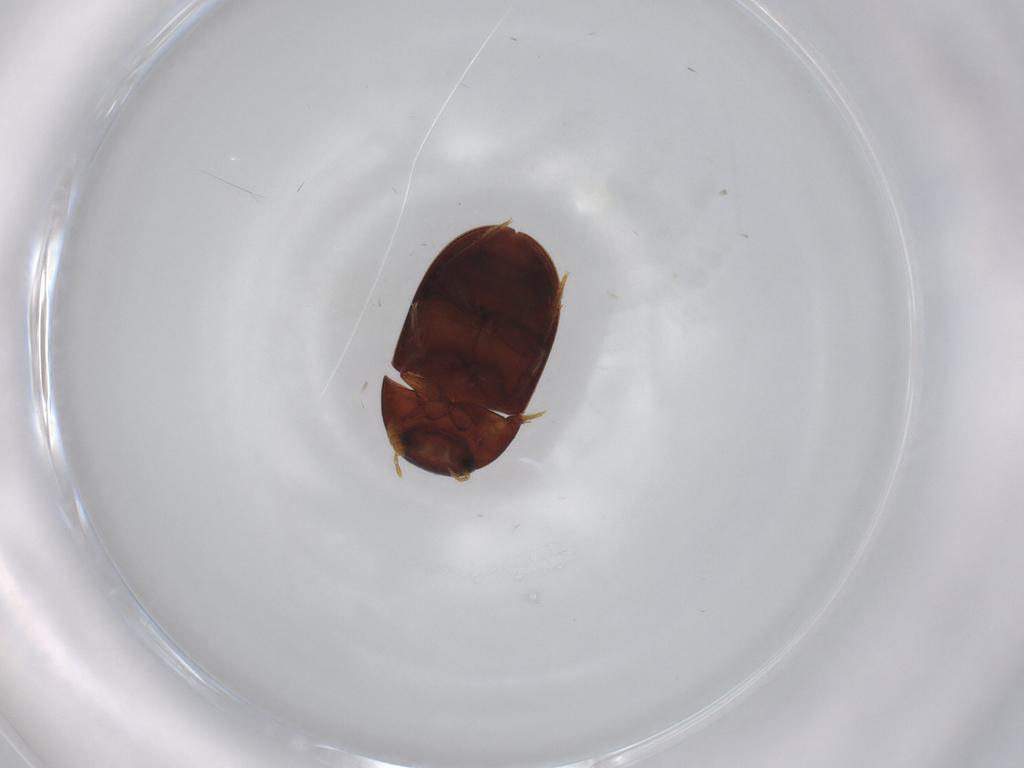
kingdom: Animalia
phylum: Arthropoda
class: Insecta
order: Coleoptera
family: Hydrophilidae
